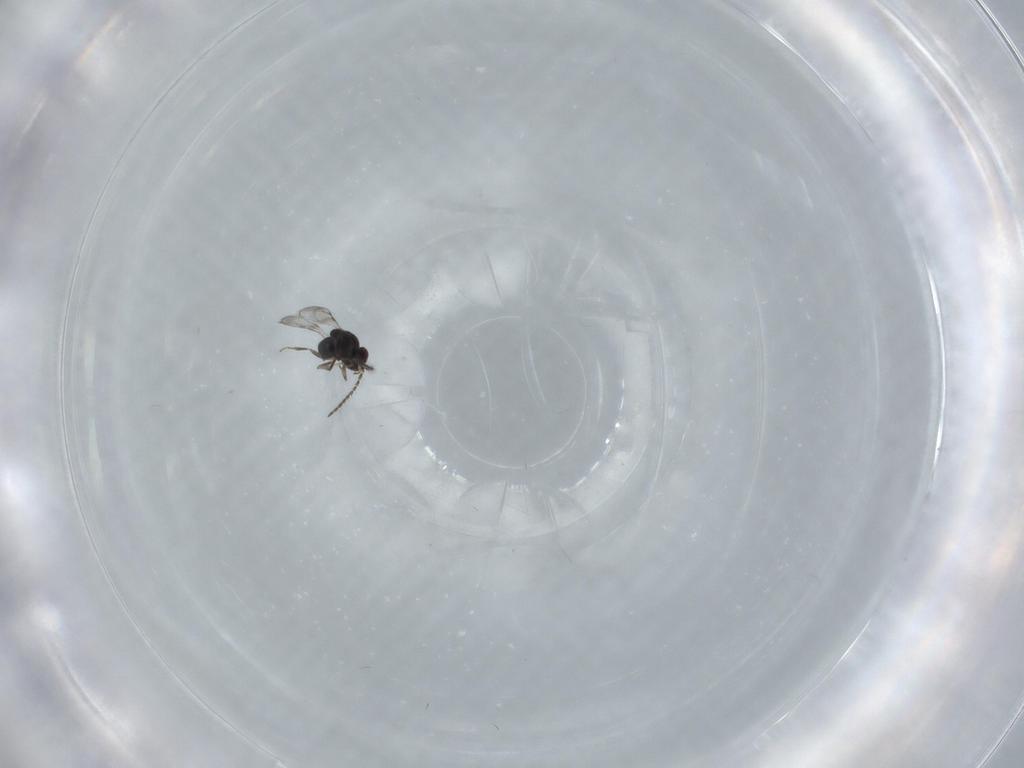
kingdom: Animalia
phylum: Arthropoda
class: Insecta
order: Hymenoptera
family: Ceraphronidae
